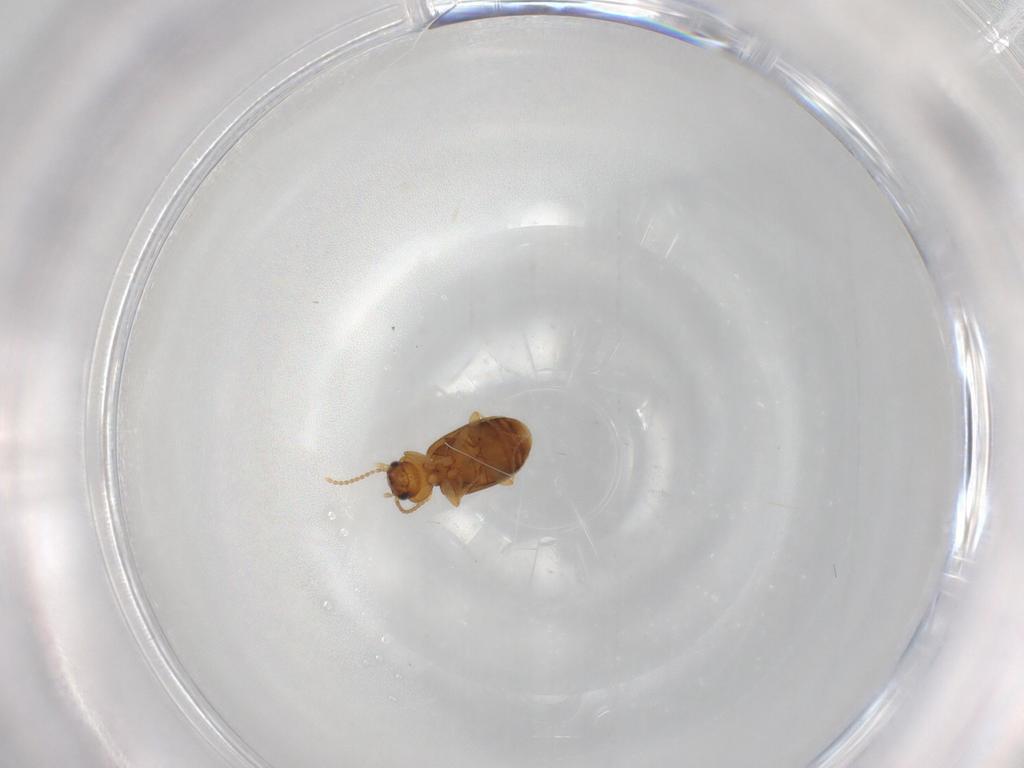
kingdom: Animalia
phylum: Arthropoda
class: Insecta
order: Coleoptera
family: Carabidae
